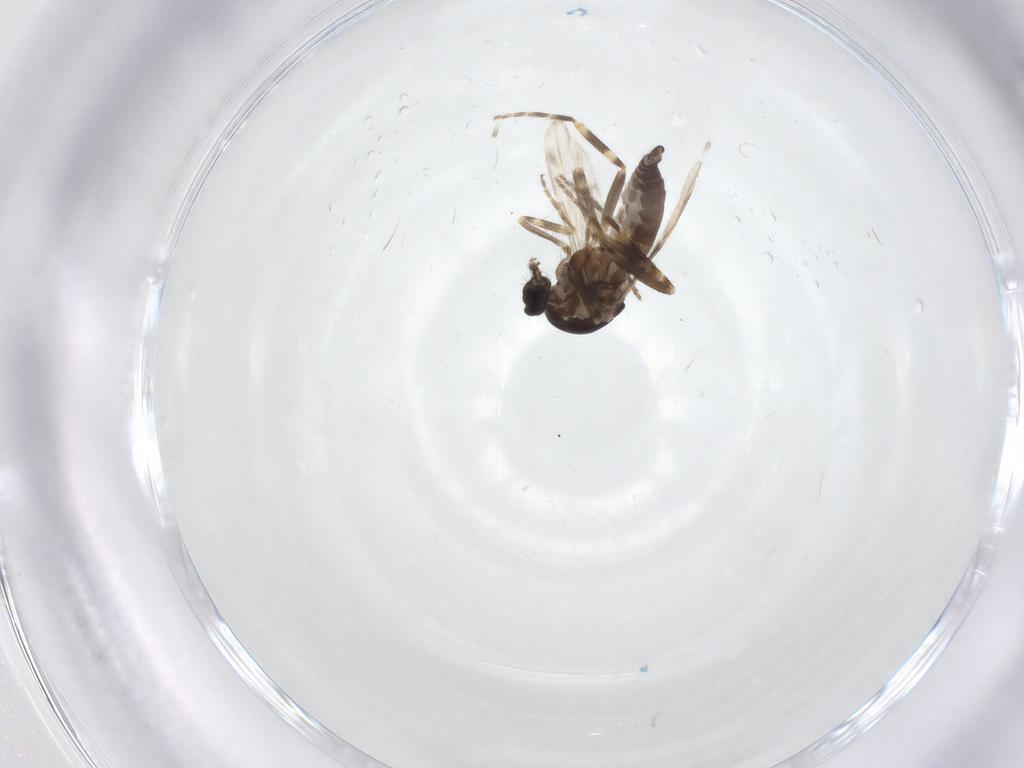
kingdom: Animalia
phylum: Arthropoda
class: Insecta
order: Diptera
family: Ceratopogonidae
